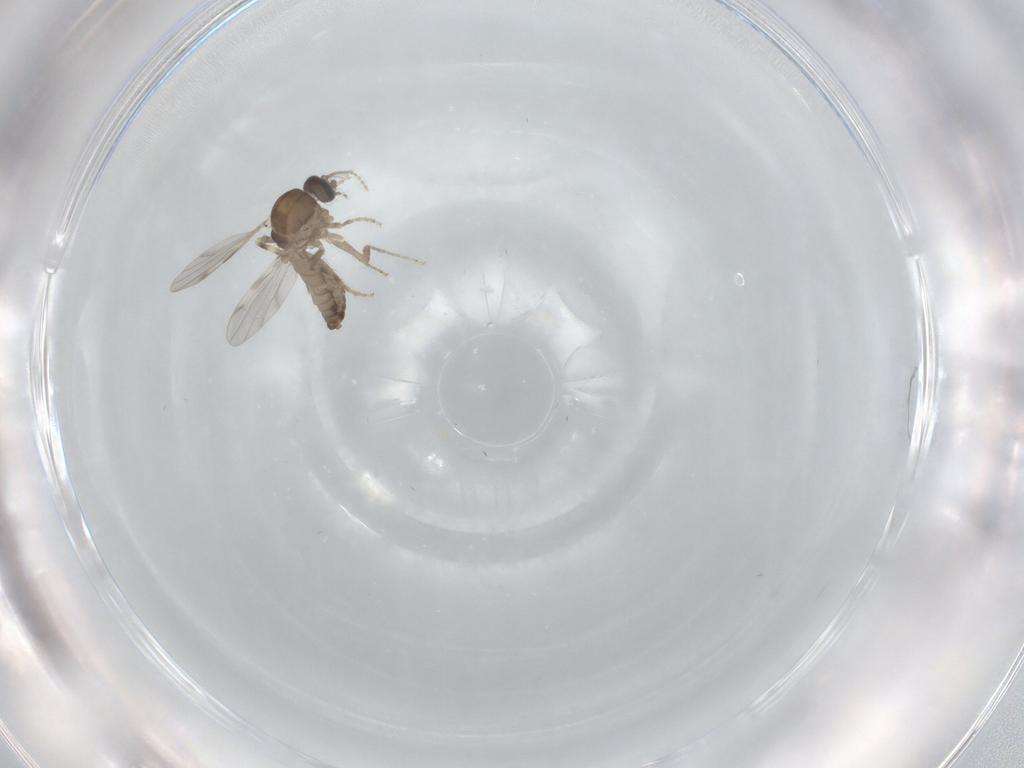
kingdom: Animalia
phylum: Arthropoda
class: Insecta
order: Diptera
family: Ceratopogonidae
